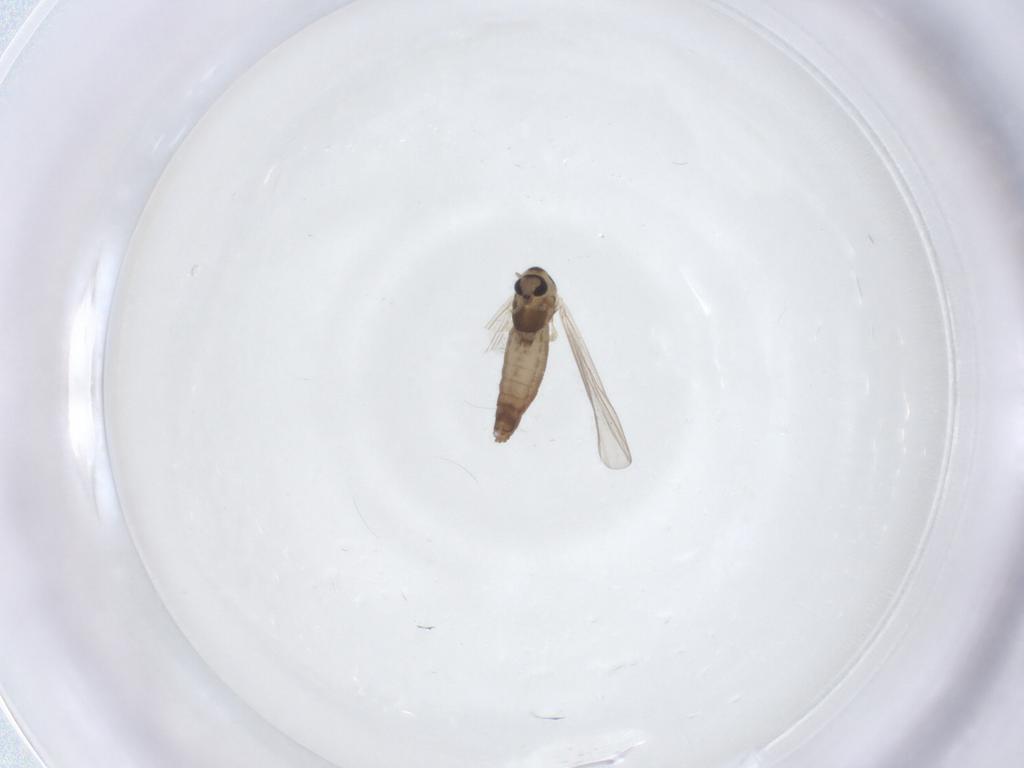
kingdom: Animalia
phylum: Arthropoda
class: Insecta
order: Diptera
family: Chironomidae
